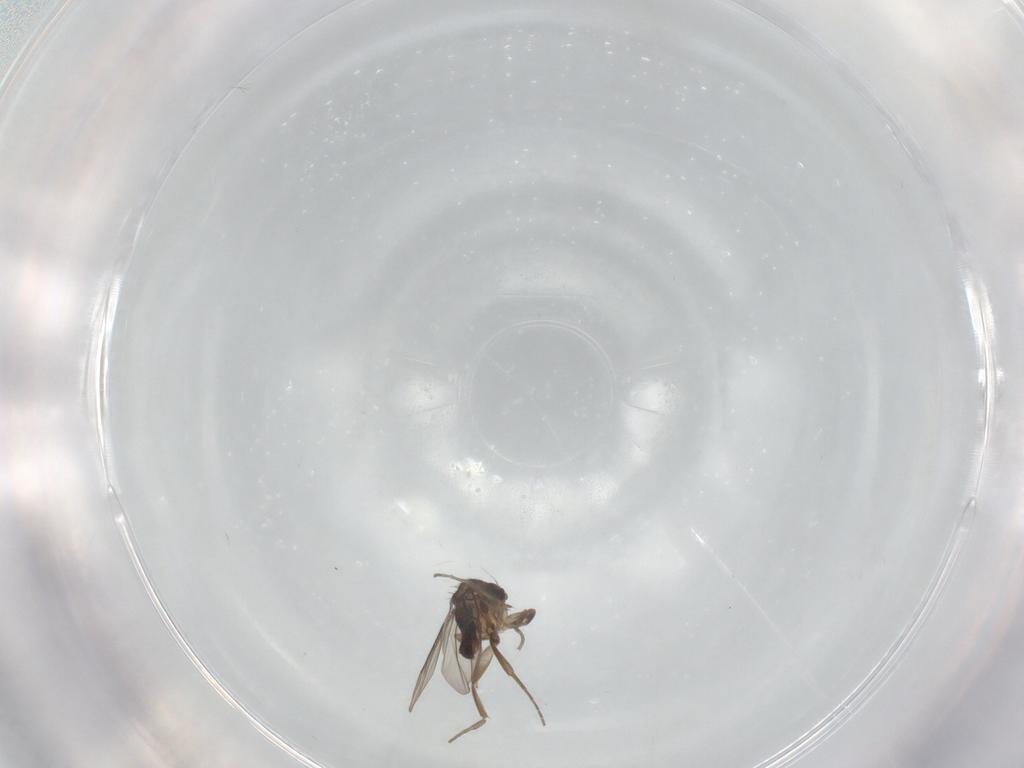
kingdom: Animalia
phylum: Arthropoda
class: Insecta
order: Diptera
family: Phoridae
